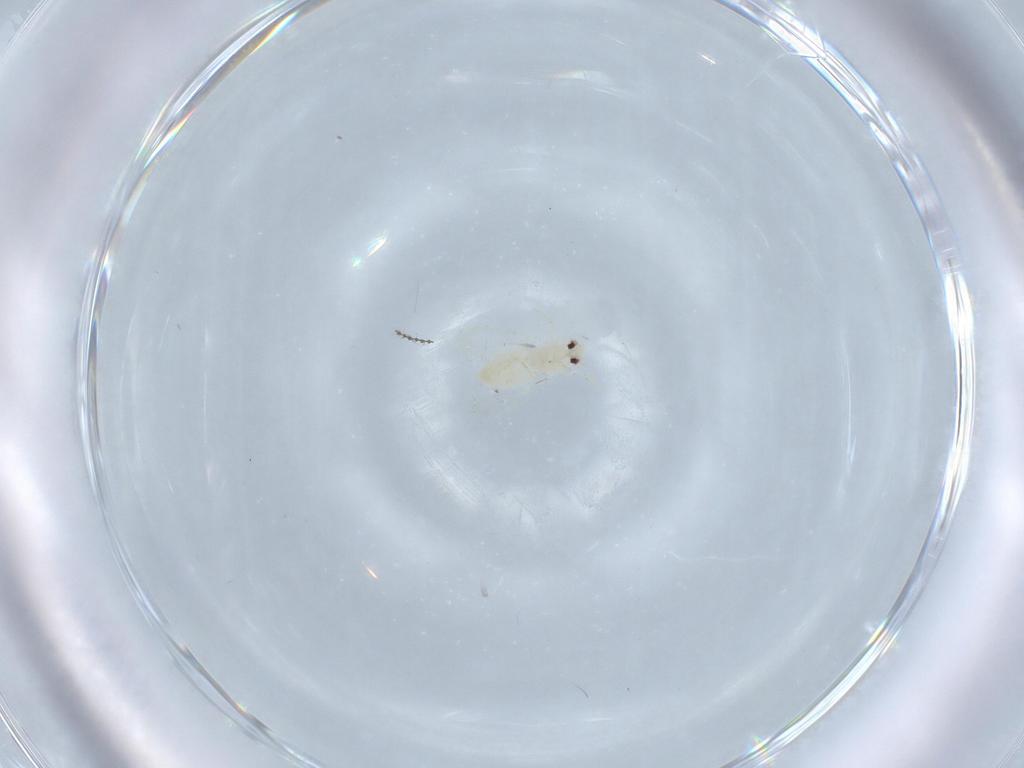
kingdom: Animalia
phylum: Arthropoda
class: Insecta
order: Hemiptera
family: Aleyrodidae
